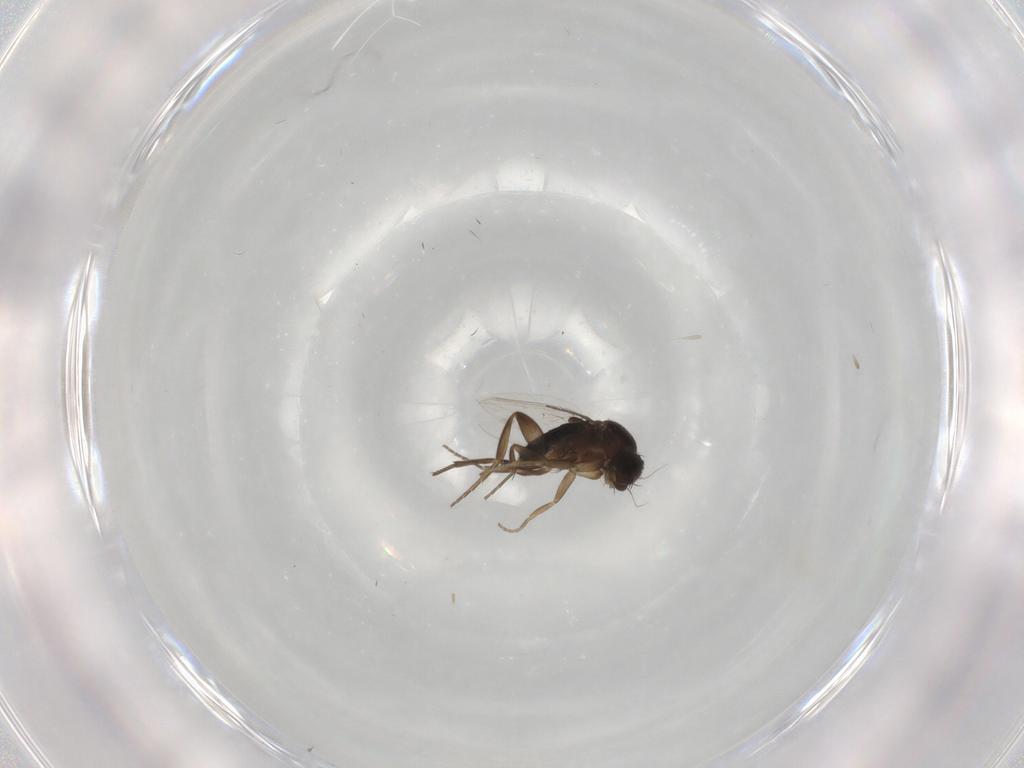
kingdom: Animalia
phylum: Arthropoda
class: Insecta
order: Diptera
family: Phoridae
